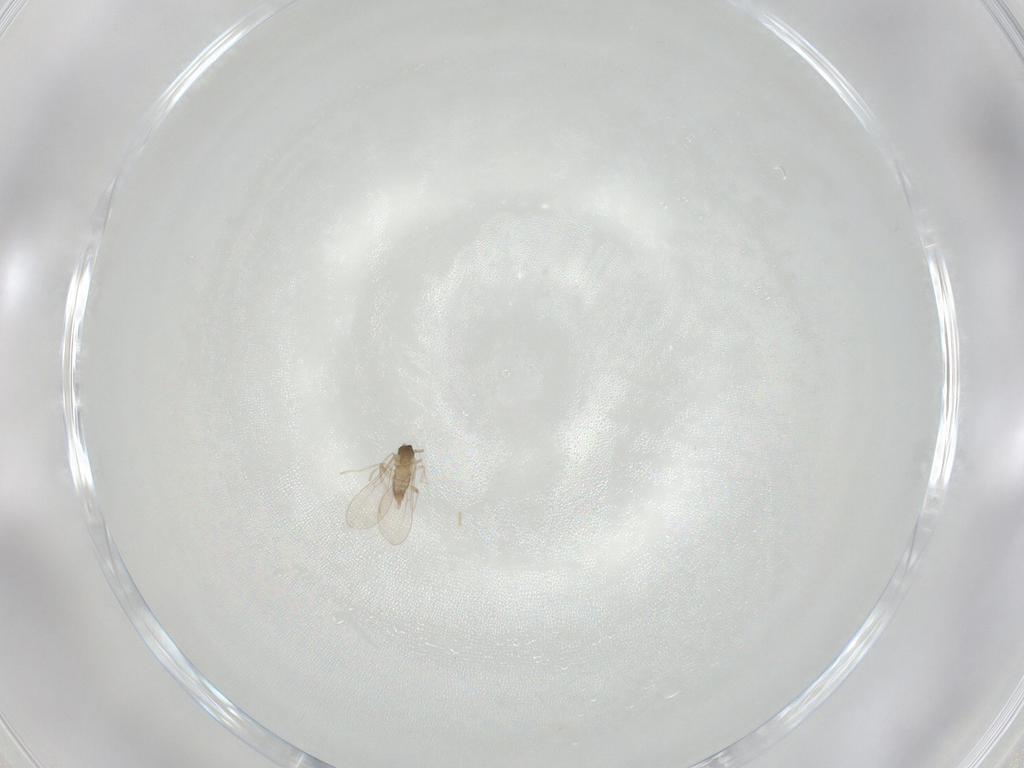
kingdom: Animalia
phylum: Arthropoda
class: Insecta
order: Diptera
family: Cecidomyiidae
